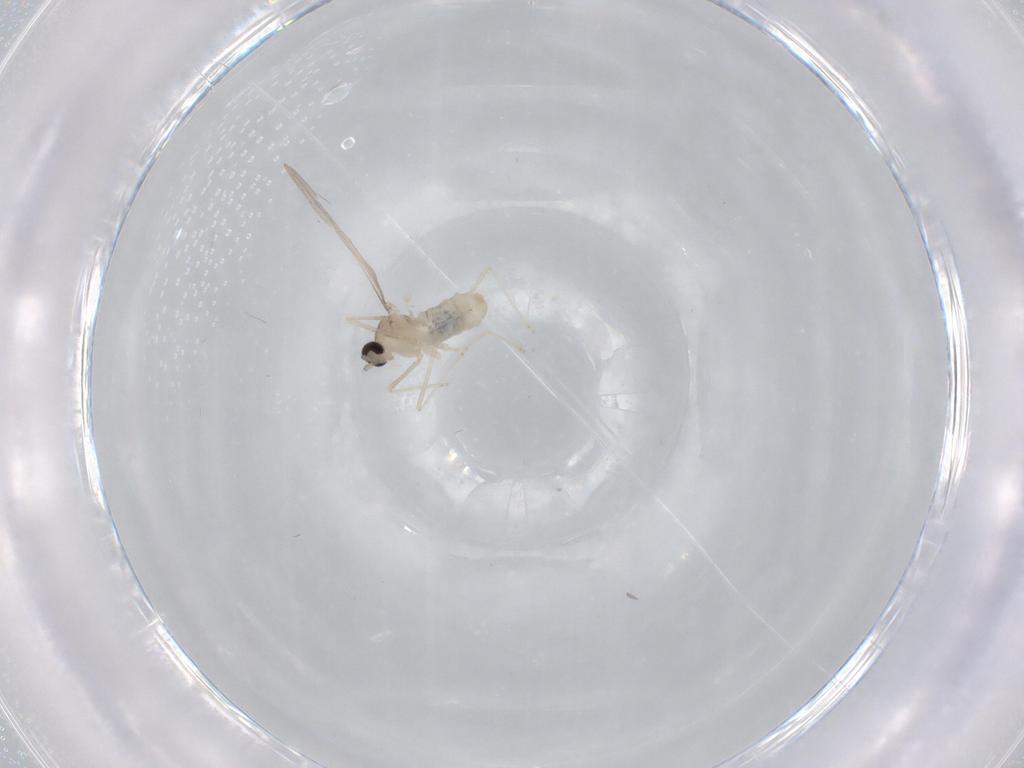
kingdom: Animalia
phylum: Arthropoda
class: Insecta
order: Diptera
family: Cecidomyiidae
